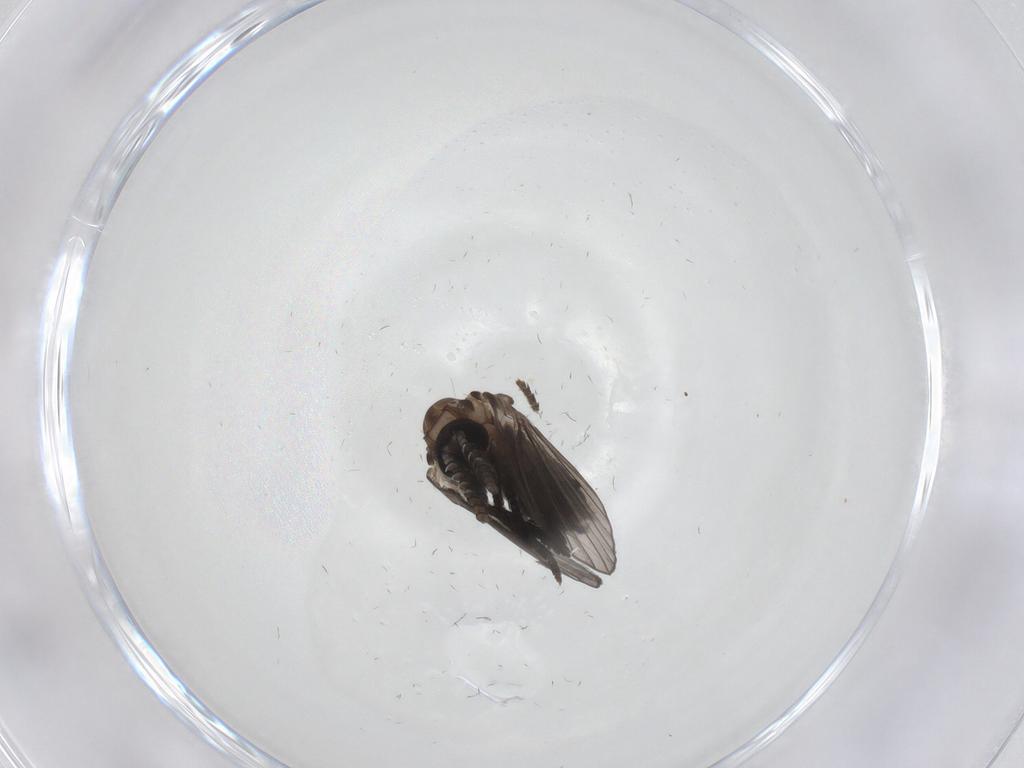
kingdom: Animalia
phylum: Arthropoda
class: Insecta
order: Diptera
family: Psychodidae
